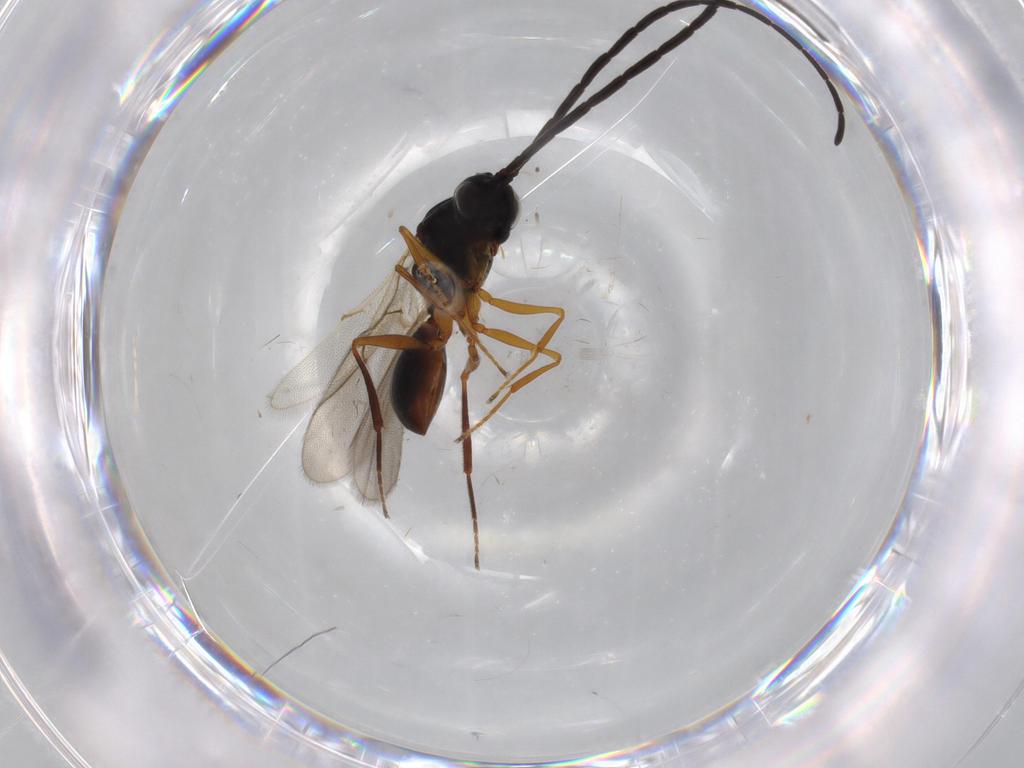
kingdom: Animalia
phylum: Arthropoda
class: Insecta
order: Hymenoptera
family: Figitidae
